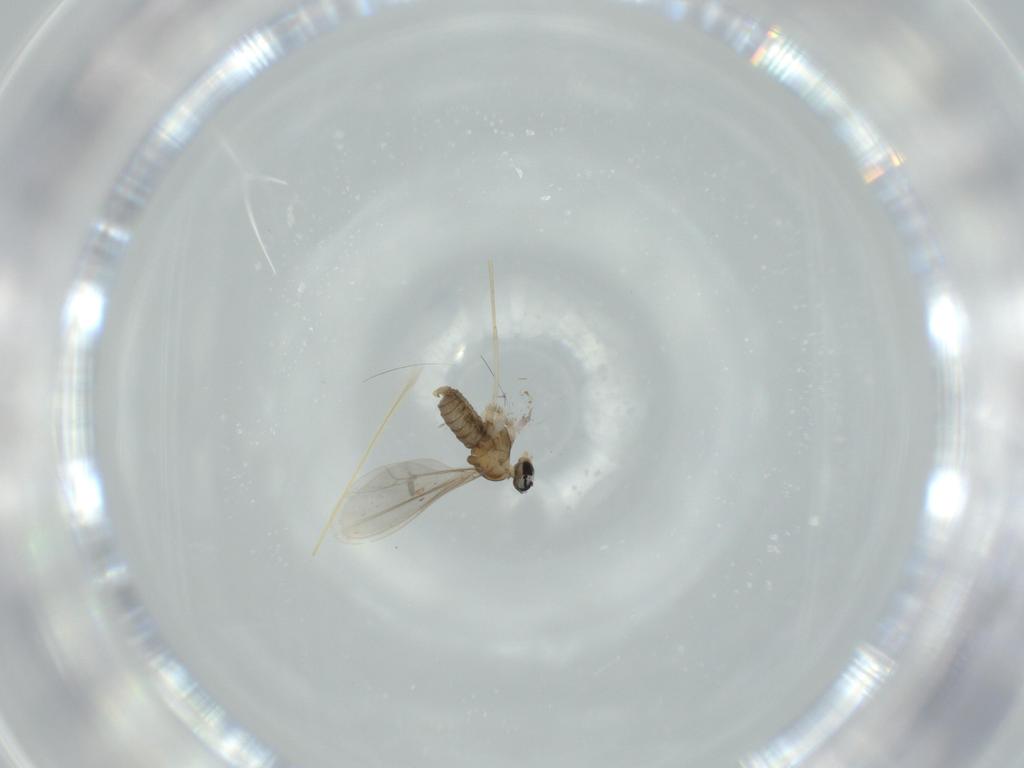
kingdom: Animalia
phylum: Arthropoda
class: Insecta
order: Diptera
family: Cecidomyiidae
